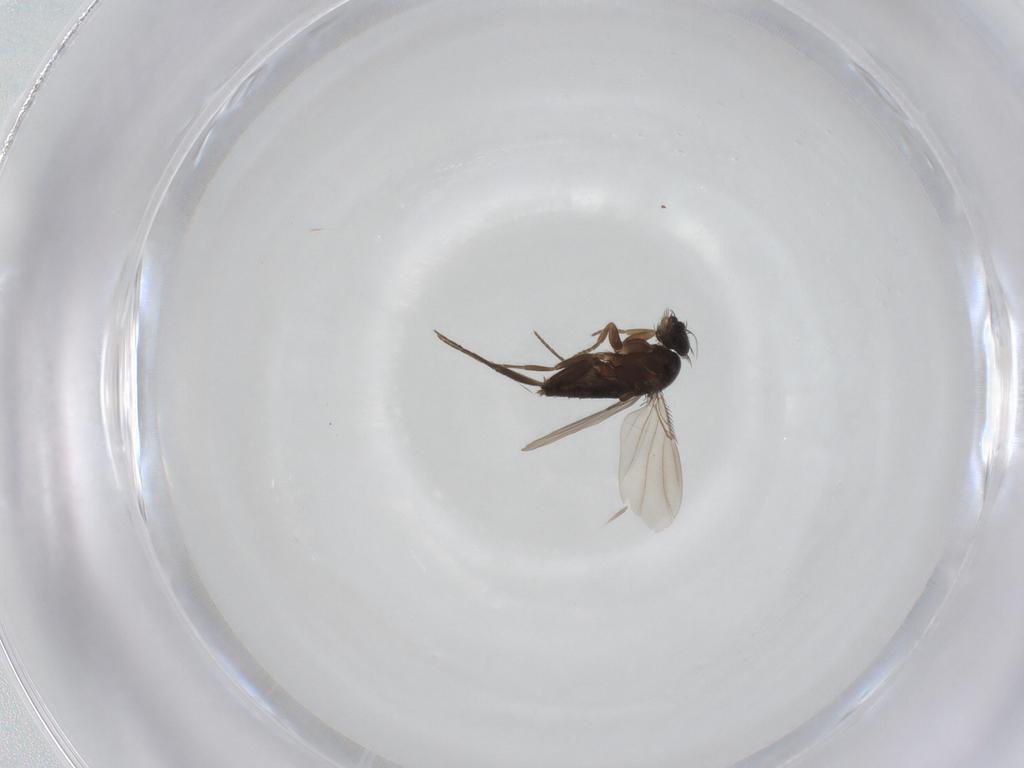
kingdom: Animalia
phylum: Arthropoda
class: Insecta
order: Diptera
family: Phoridae
